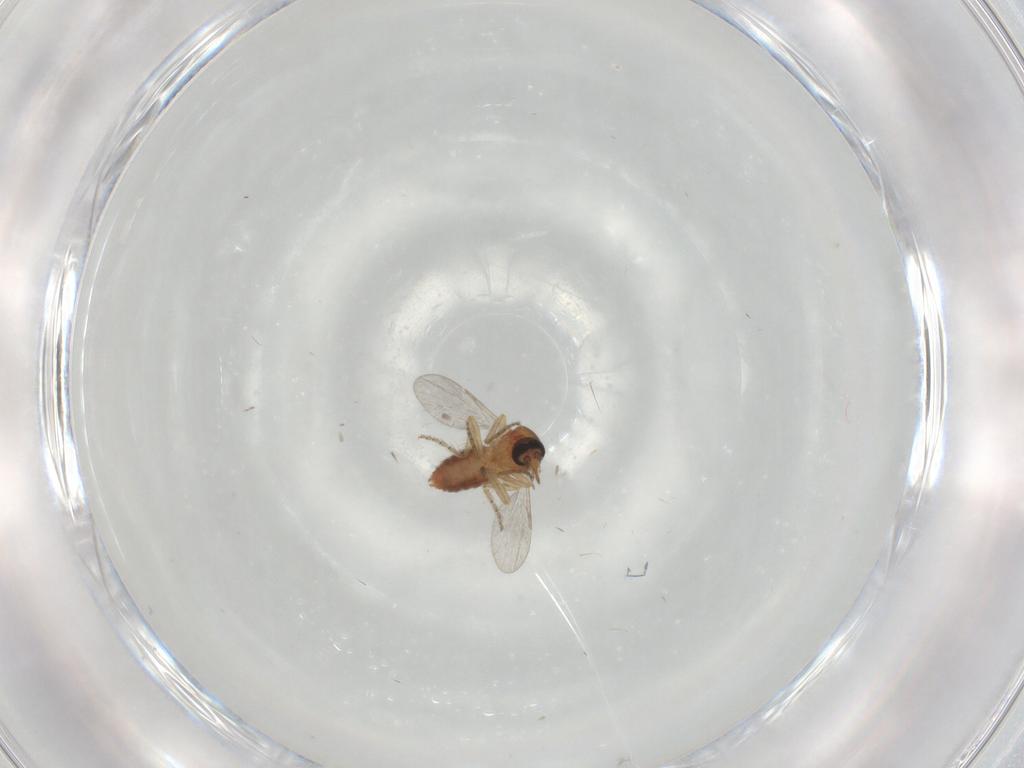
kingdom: Animalia
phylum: Arthropoda
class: Insecta
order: Diptera
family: Ceratopogonidae
